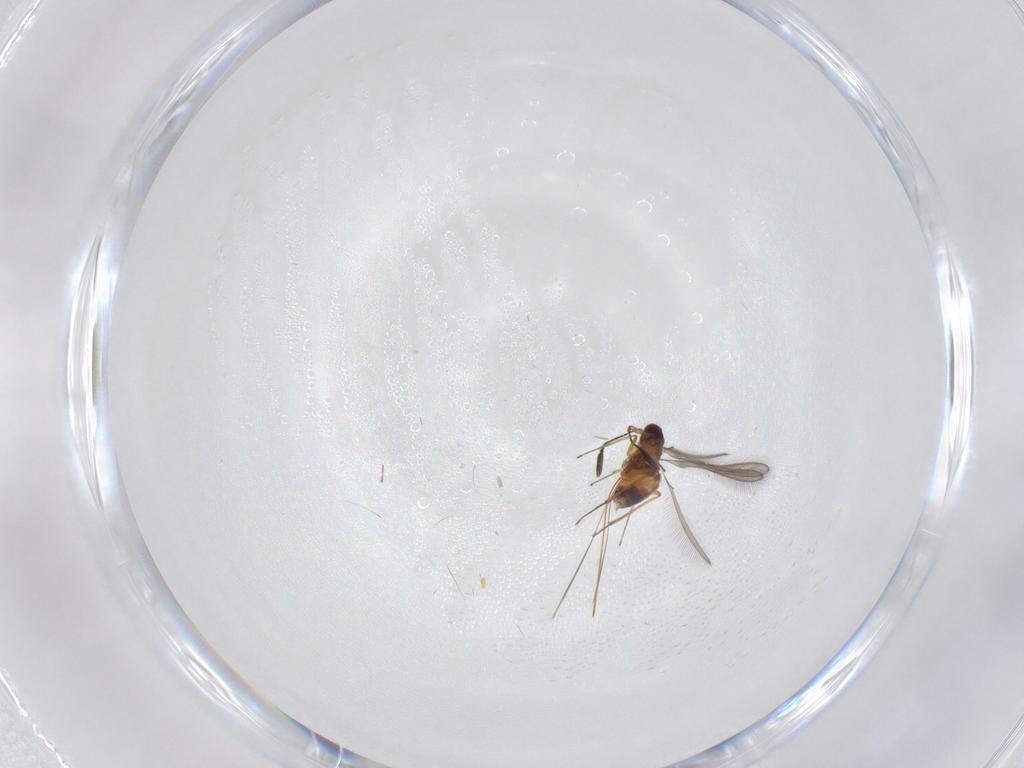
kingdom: Animalia
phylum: Arthropoda
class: Insecta
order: Hymenoptera
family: Mymaridae
